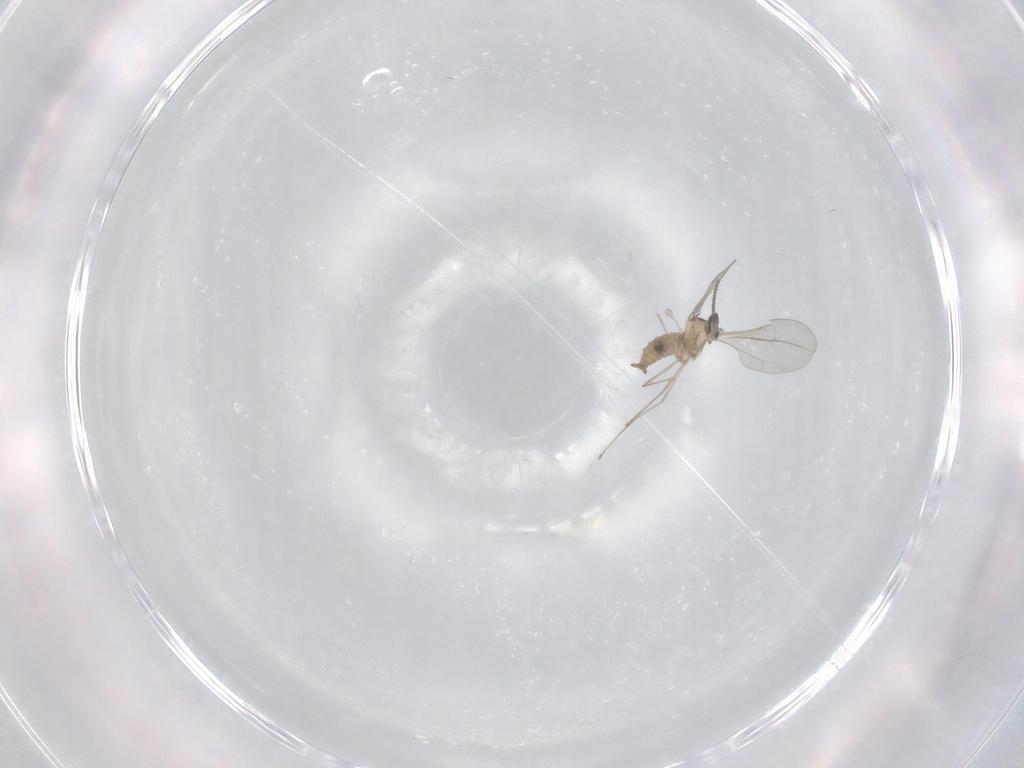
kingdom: Animalia
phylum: Arthropoda
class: Insecta
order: Diptera
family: Cecidomyiidae
